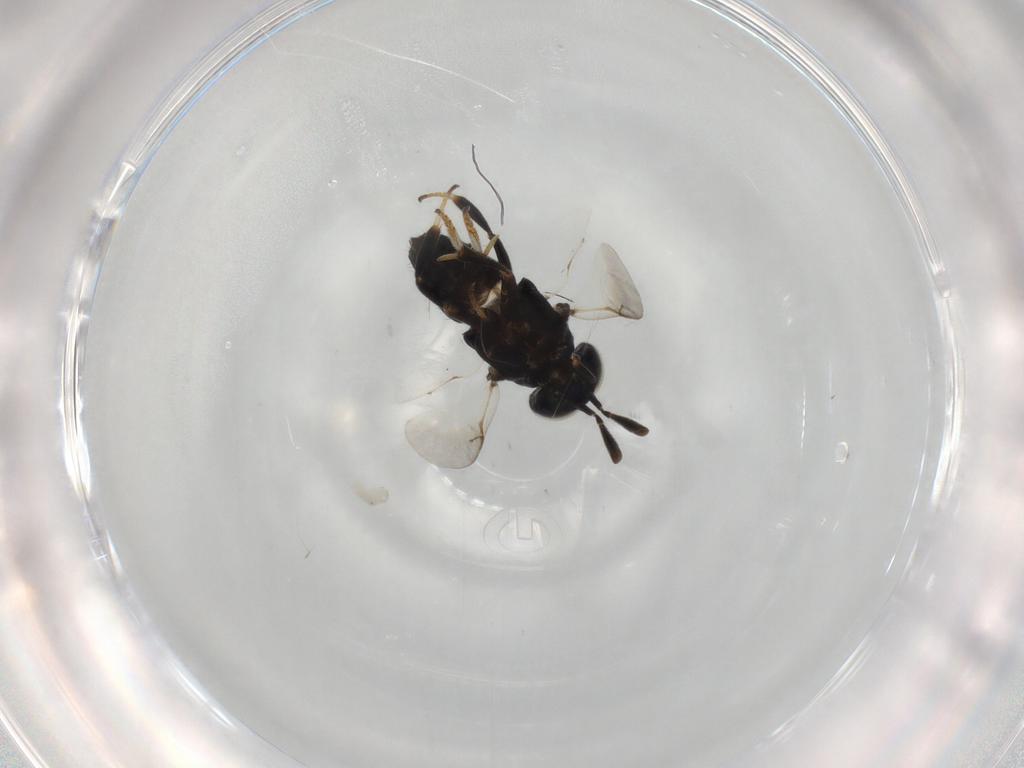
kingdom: Animalia
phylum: Arthropoda
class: Insecta
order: Hymenoptera
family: Encyrtidae
